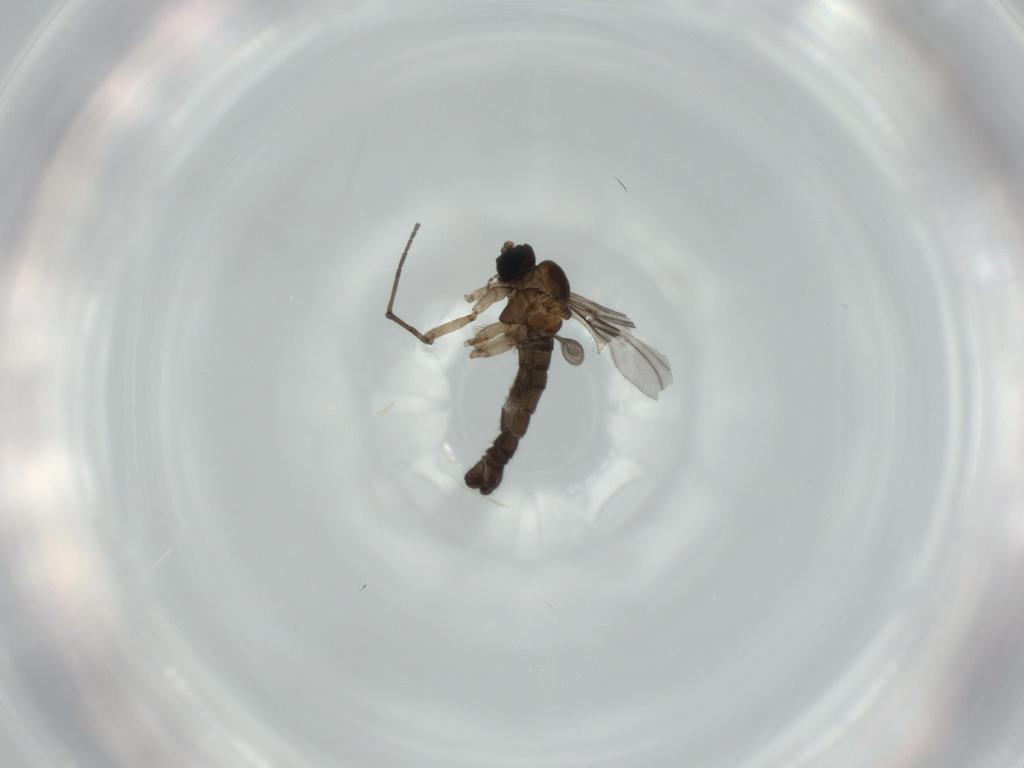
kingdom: Animalia
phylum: Arthropoda
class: Insecta
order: Diptera
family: Sciaridae
